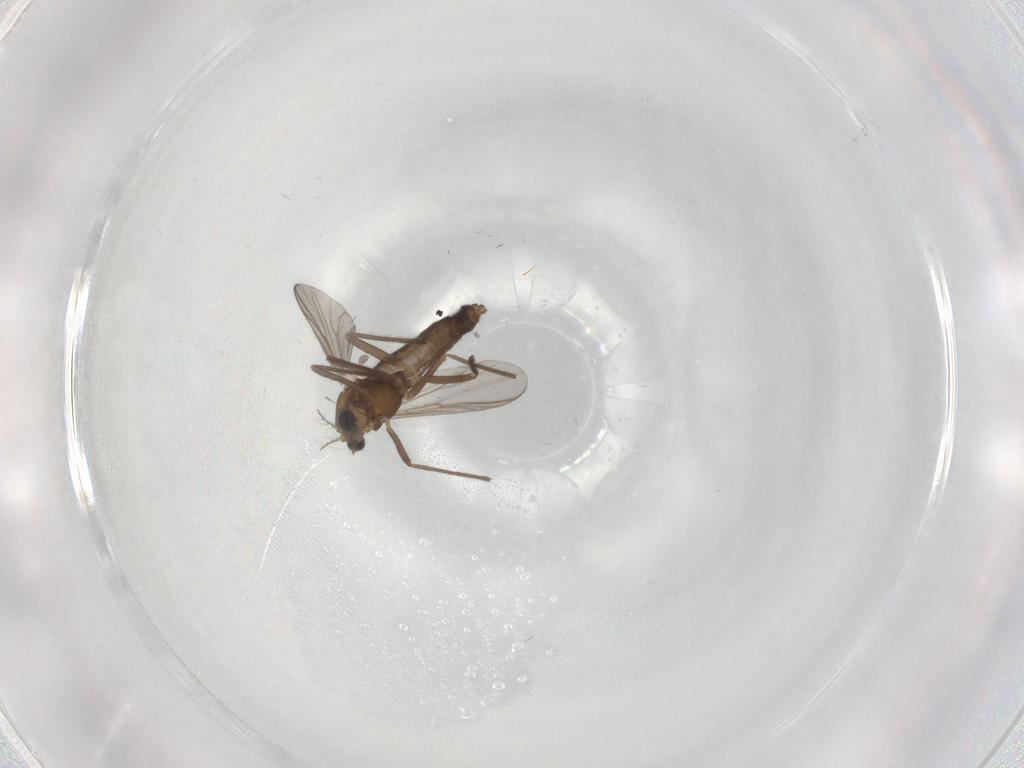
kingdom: Animalia
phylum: Arthropoda
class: Insecta
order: Diptera
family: Chironomidae
